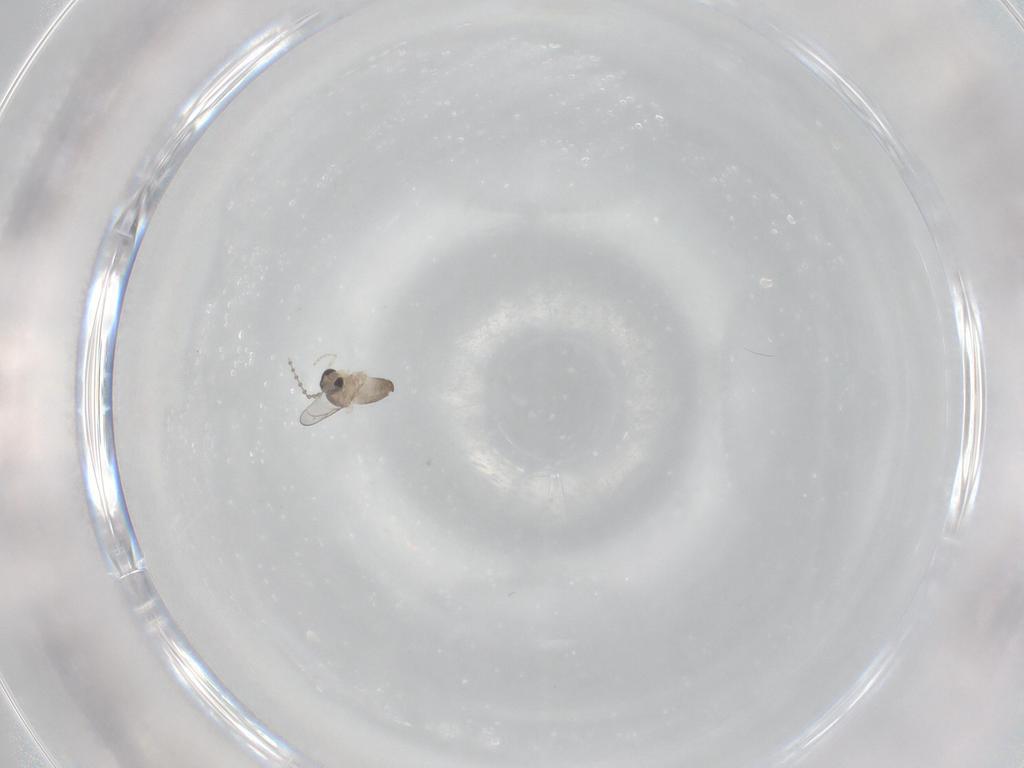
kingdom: Animalia
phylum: Arthropoda
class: Insecta
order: Diptera
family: Cecidomyiidae
